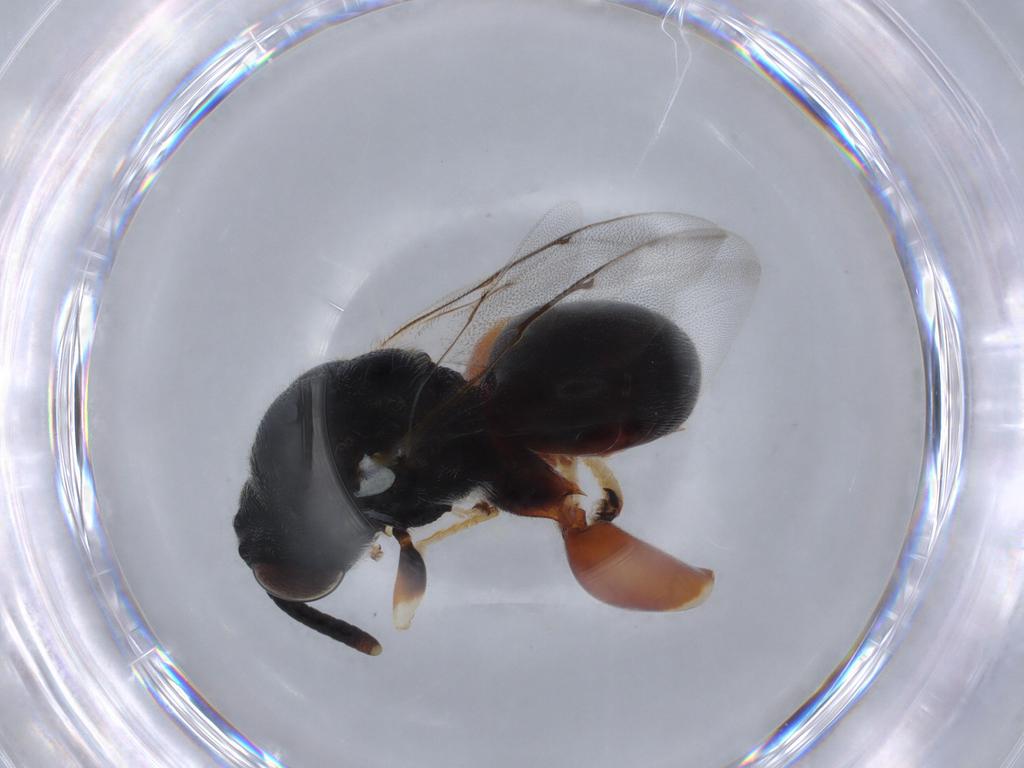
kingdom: Animalia
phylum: Arthropoda
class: Insecta
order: Hymenoptera
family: Chalcididae
